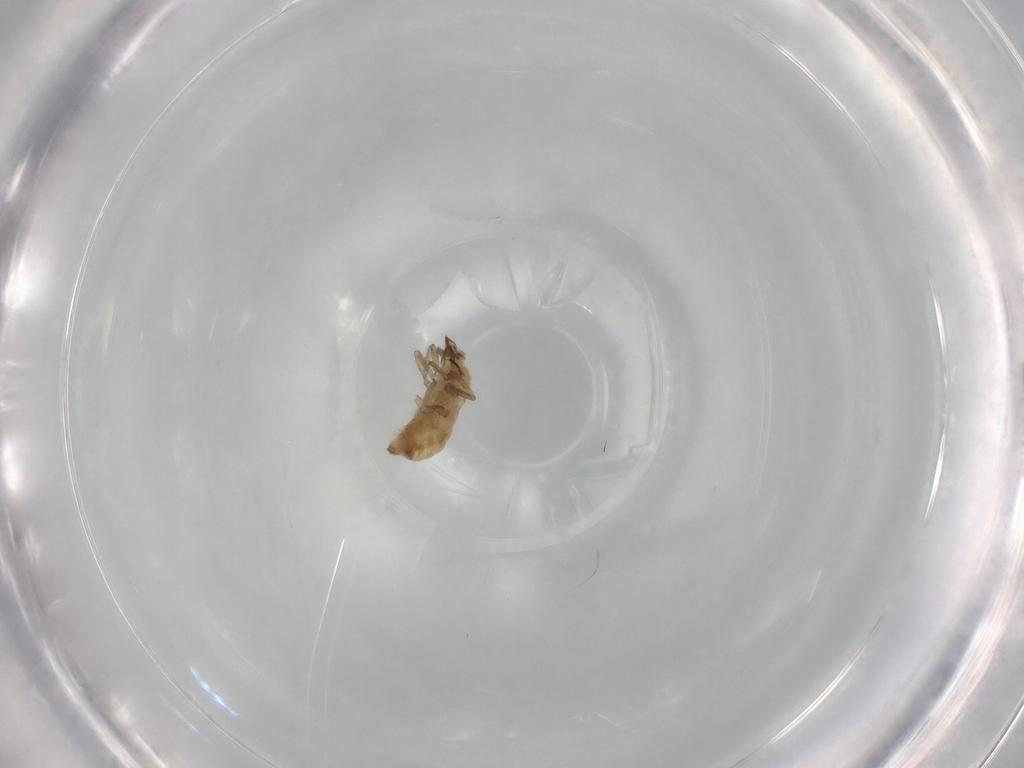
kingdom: Animalia
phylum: Arthropoda
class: Insecta
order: Neuroptera
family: Coniopterygidae
